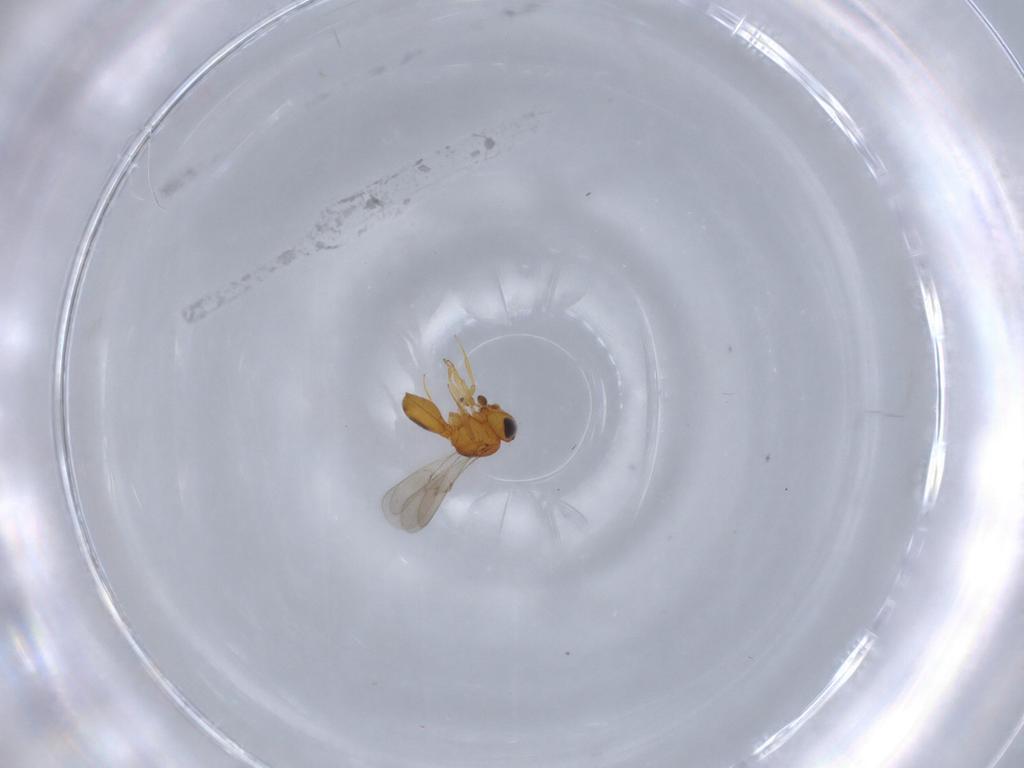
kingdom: Animalia
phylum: Arthropoda
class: Insecta
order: Hymenoptera
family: Scelionidae
